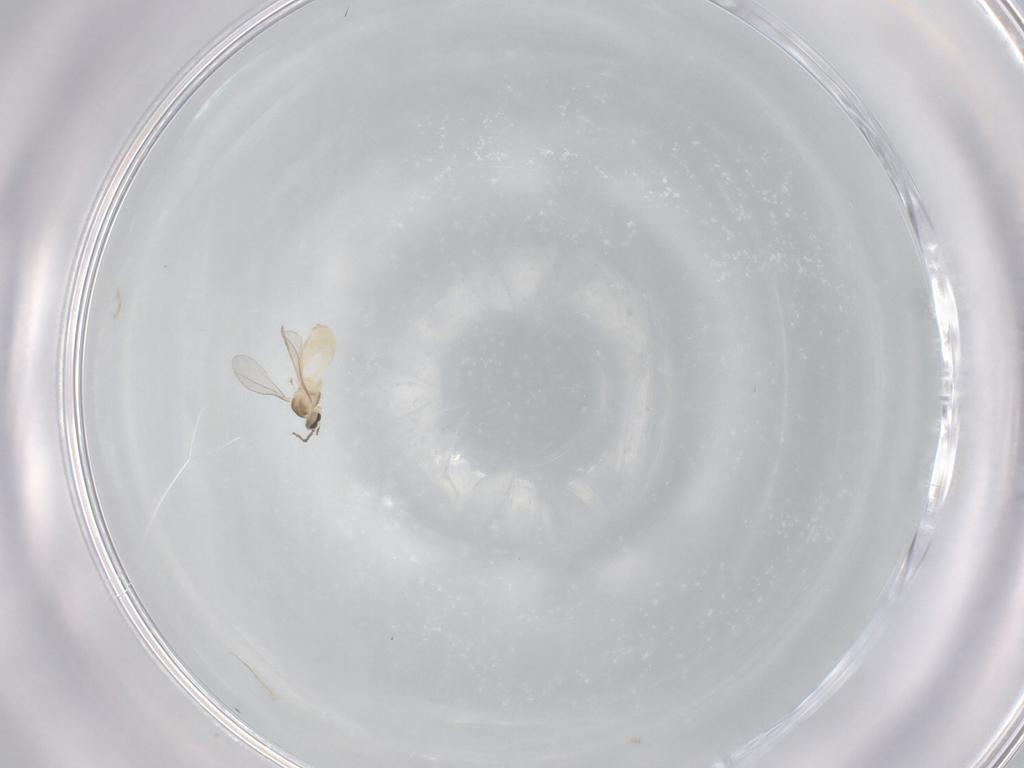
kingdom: Animalia
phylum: Arthropoda
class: Insecta
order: Diptera
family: Cecidomyiidae
